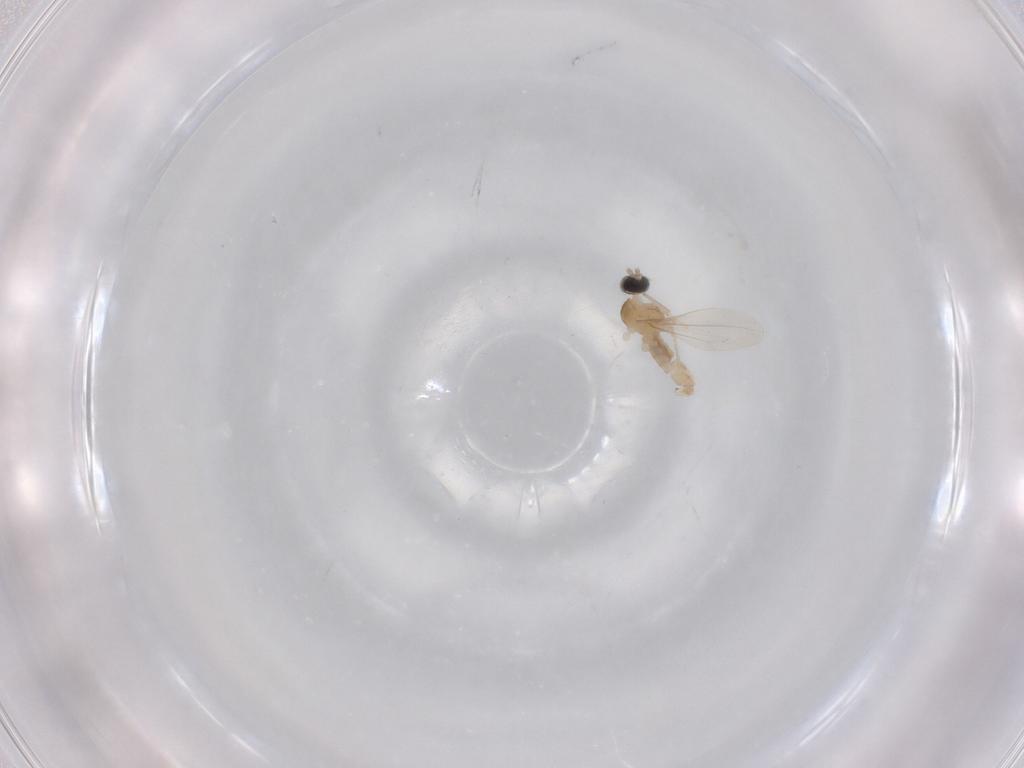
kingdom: Animalia
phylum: Arthropoda
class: Insecta
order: Diptera
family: Cecidomyiidae
